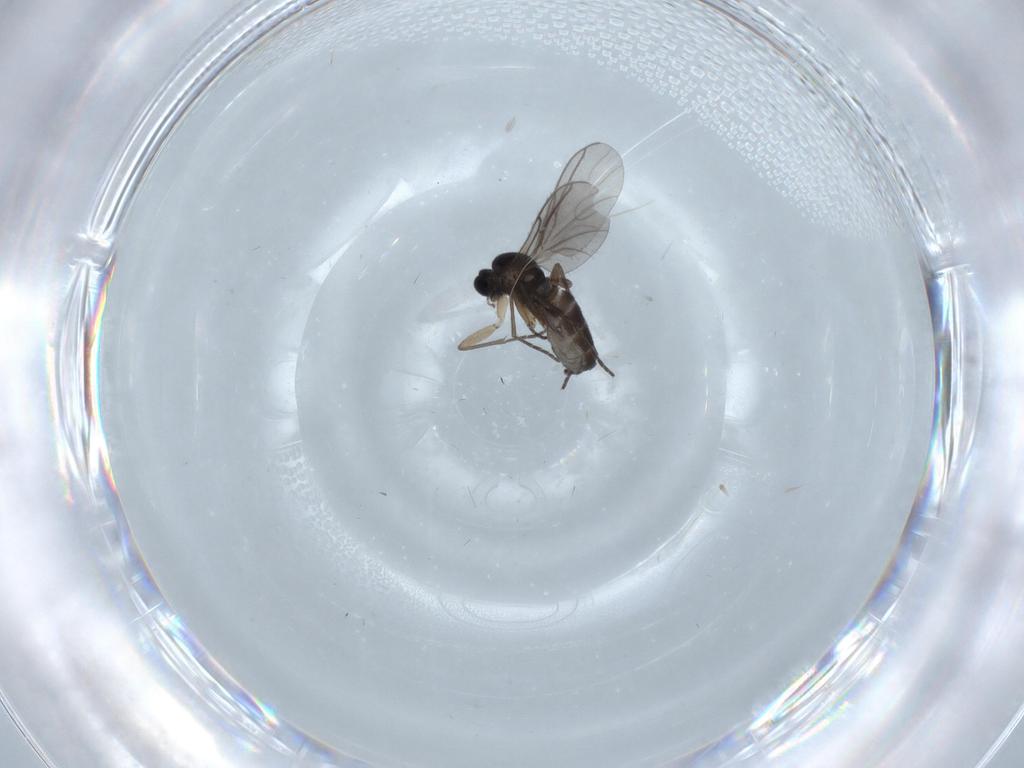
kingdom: Animalia
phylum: Arthropoda
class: Insecta
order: Diptera
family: Sciaridae
